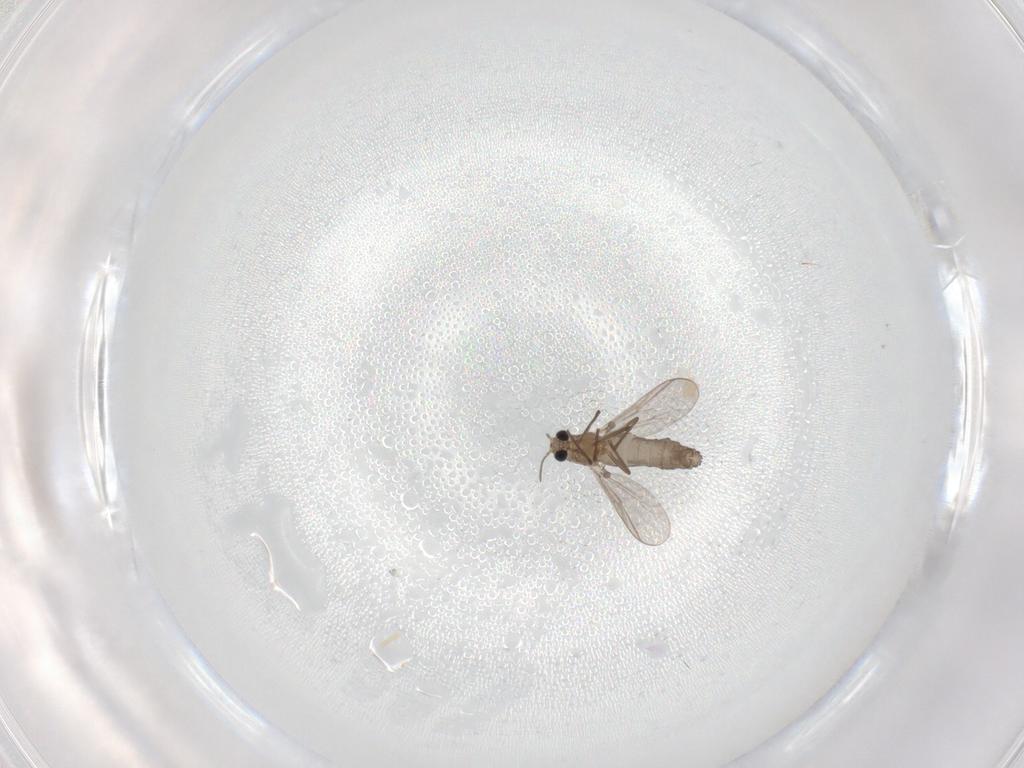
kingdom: Animalia
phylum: Arthropoda
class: Insecta
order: Diptera
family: Chironomidae
